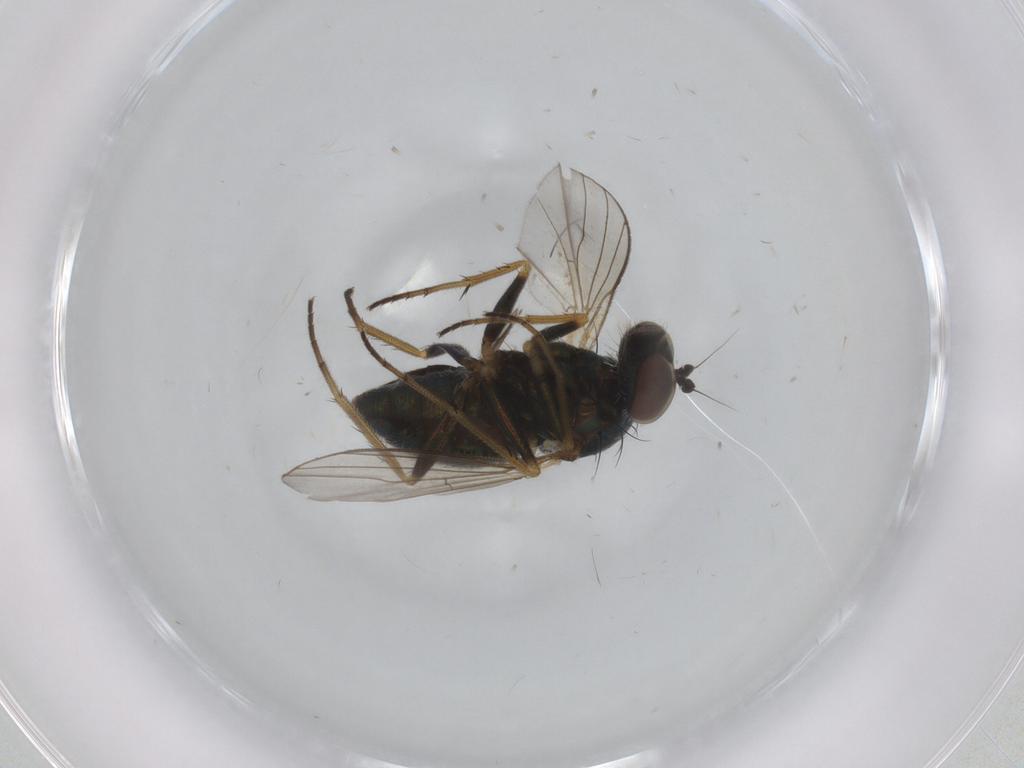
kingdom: Animalia
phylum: Arthropoda
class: Insecta
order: Diptera
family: Ceratopogonidae
